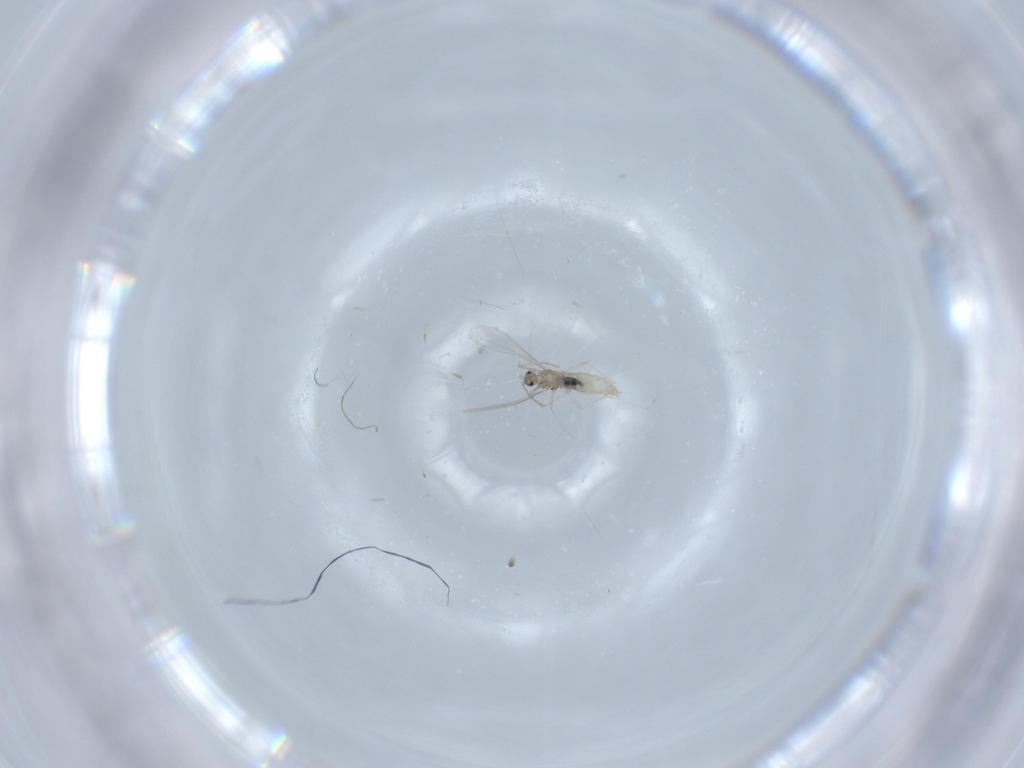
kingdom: Animalia
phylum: Arthropoda
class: Insecta
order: Diptera
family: Cecidomyiidae
